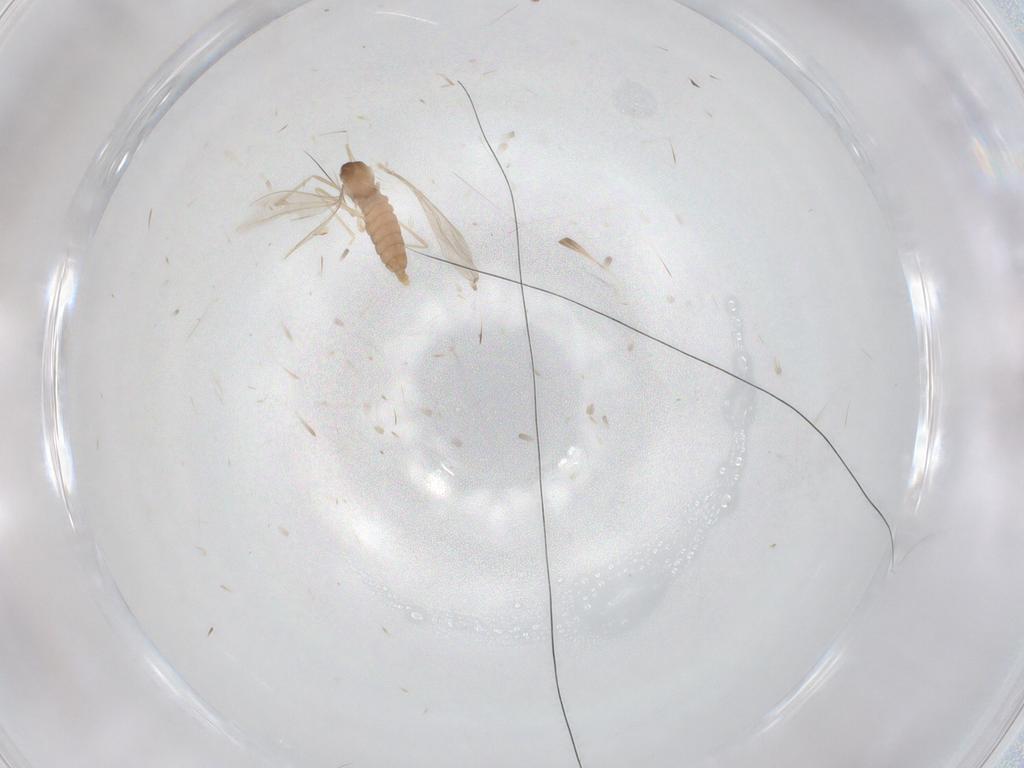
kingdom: Animalia
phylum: Arthropoda
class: Insecta
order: Diptera
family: Cecidomyiidae
